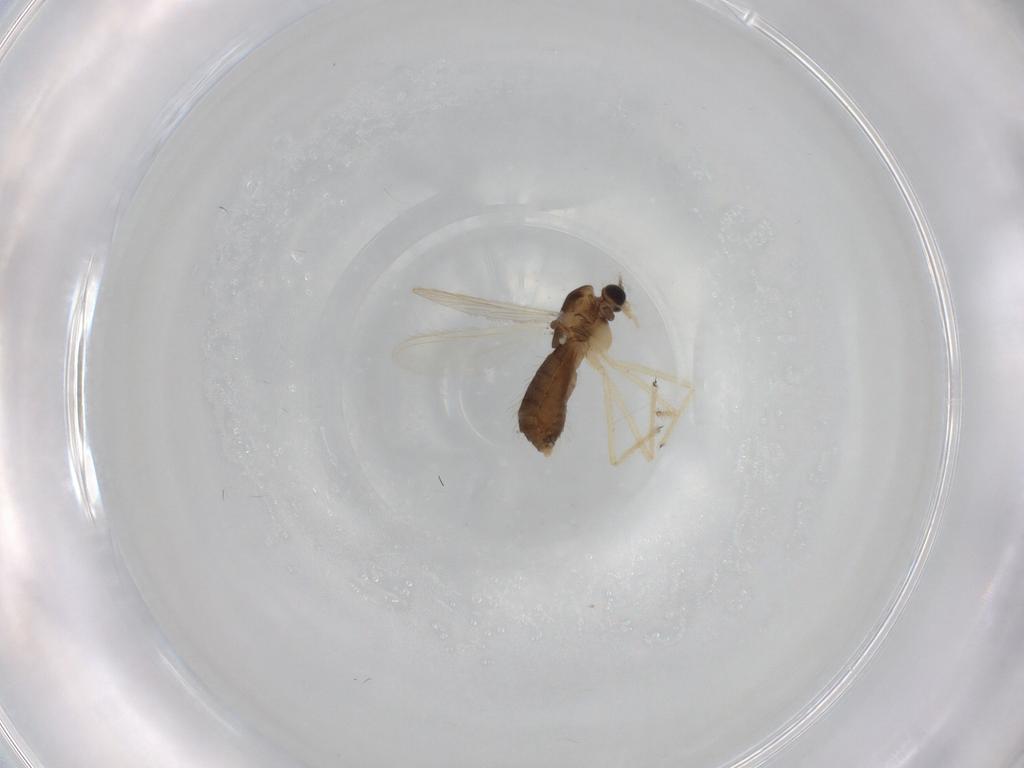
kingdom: Animalia
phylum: Arthropoda
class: Insecta
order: Diptera
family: Chironomidae
